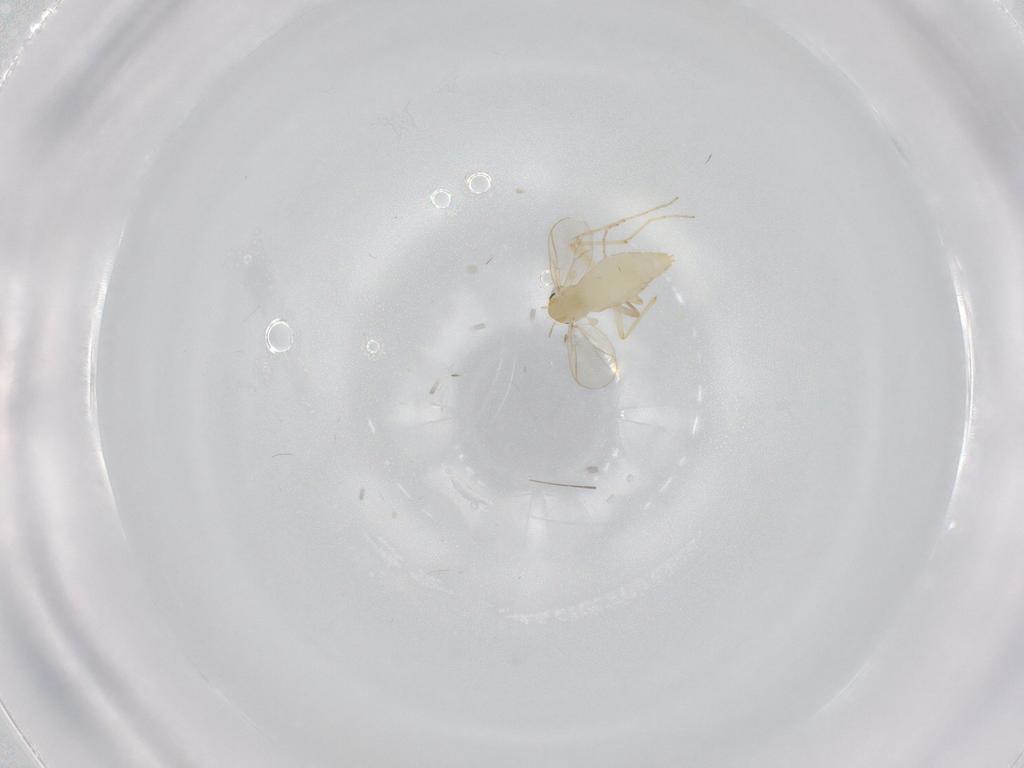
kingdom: Animalia
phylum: Arthropoda
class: Insecta
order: Diptera
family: Chironomidae
